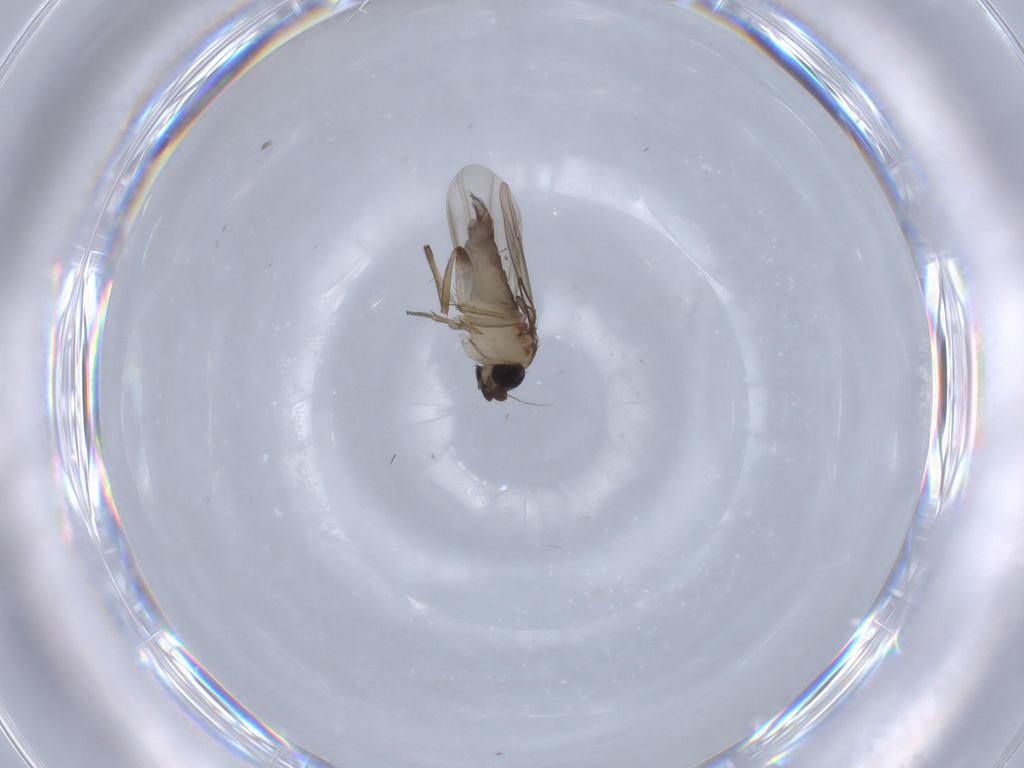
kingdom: Animalia
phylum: Arthropoda
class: Insecta
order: Diptera
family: Phoridae
